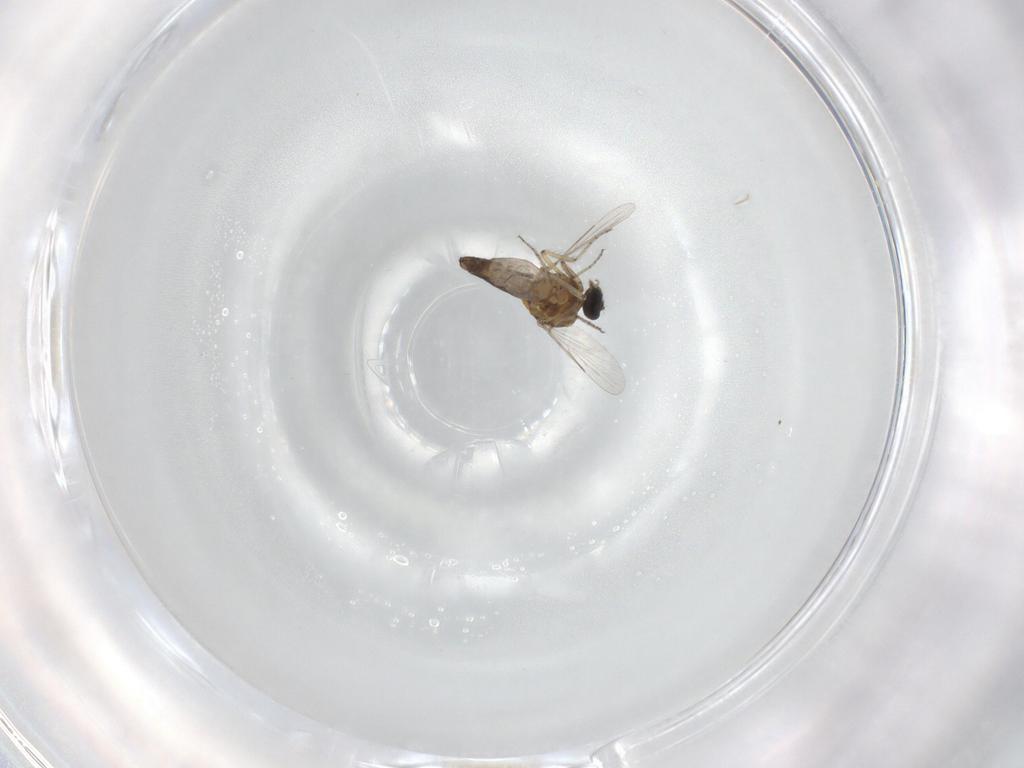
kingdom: Animalia
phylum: Arthropoda
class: Insecta
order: Diptera
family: Ceratopogonidae
